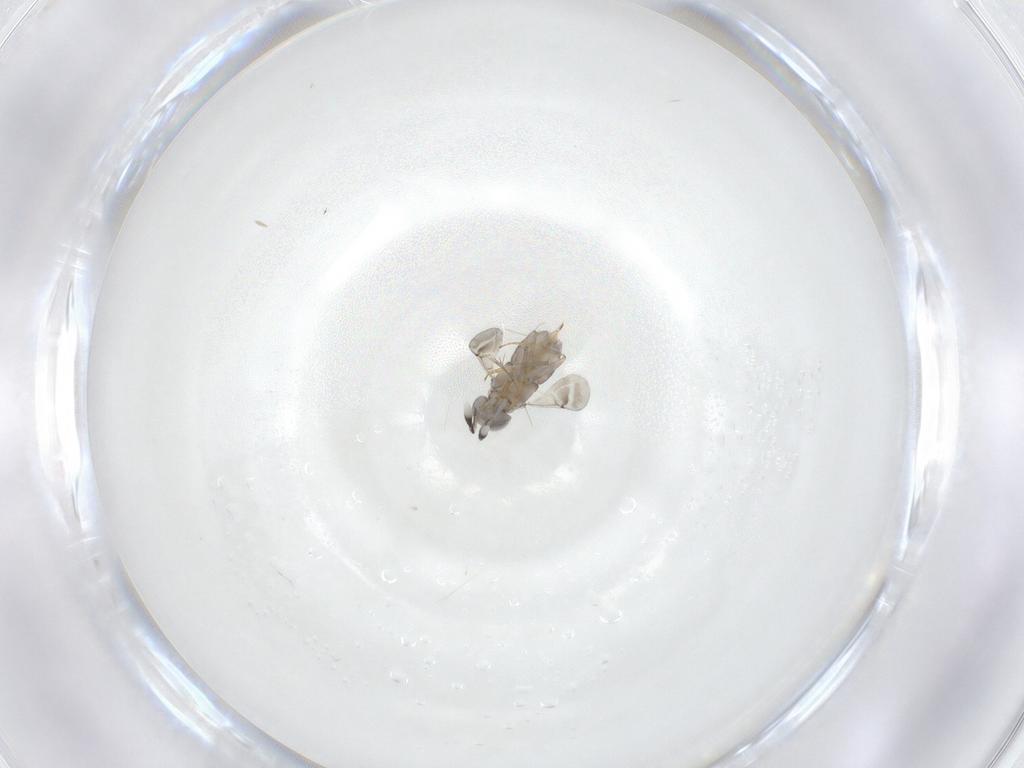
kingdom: Animalia
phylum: Arthropoda
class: Insecta
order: Hymenoptera
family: Encyrtidae
